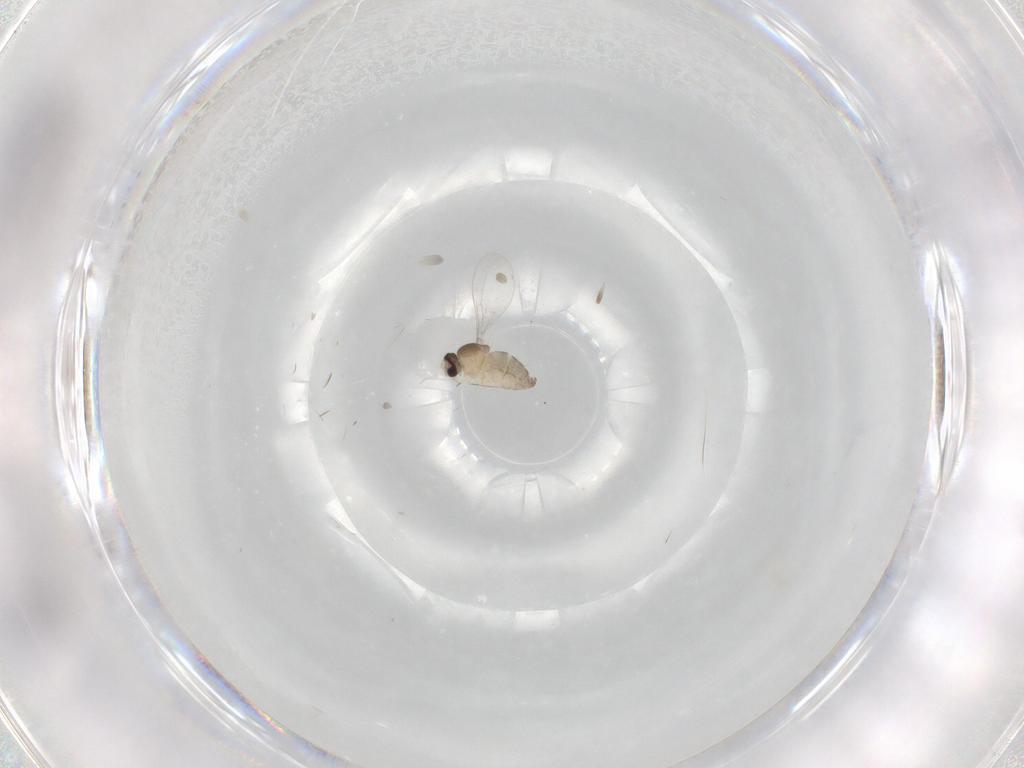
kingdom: Animalia
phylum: Arthropoda
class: Insecta
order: Diptera
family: Cecidomyiidae
